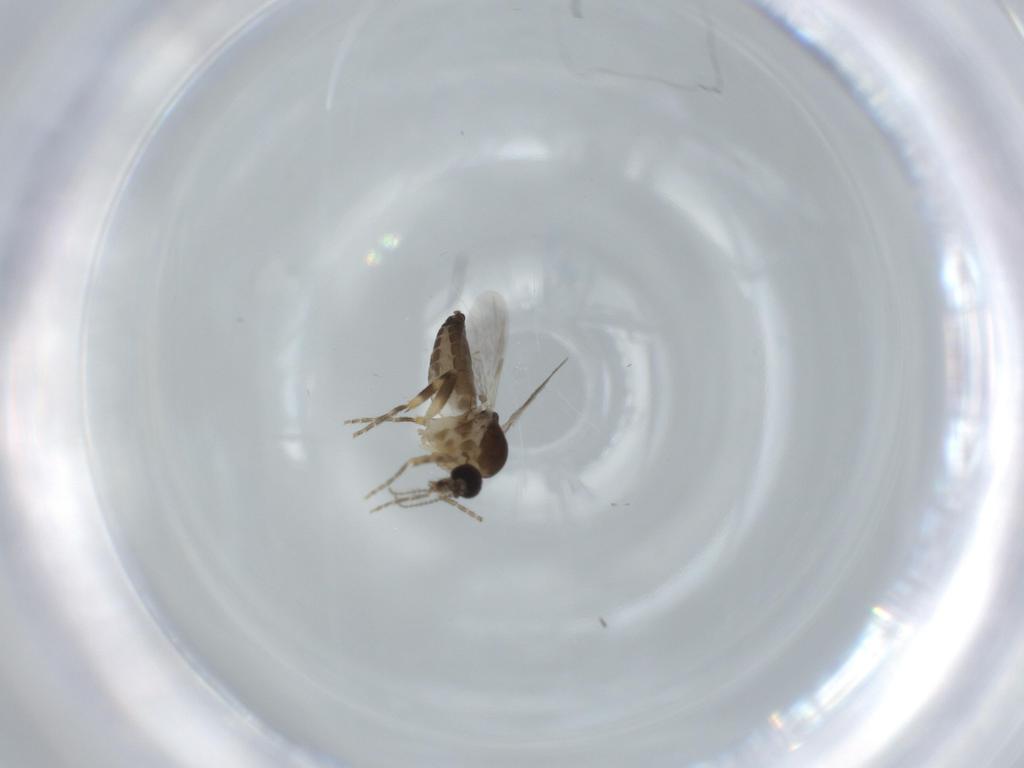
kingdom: Animalia
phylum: Arthropoda
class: Insecta
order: Diptera
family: Ceratopogonidae
